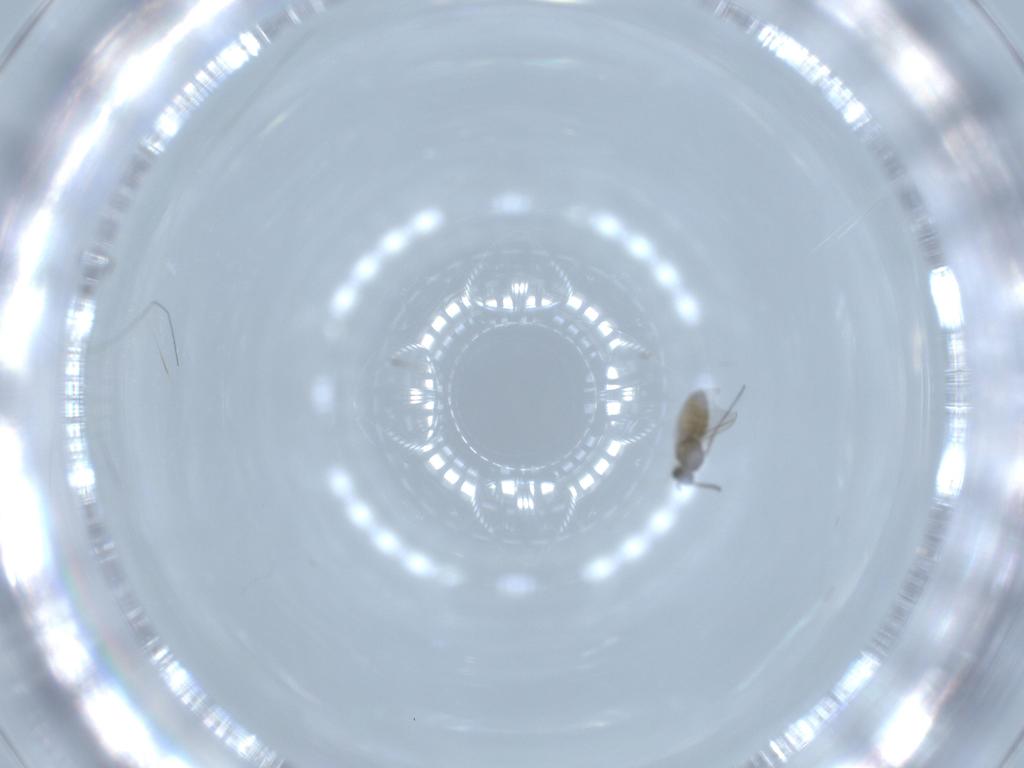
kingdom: Animalia
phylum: Arthropoda
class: Insecta
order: Diptera
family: Cecidomyiidae
